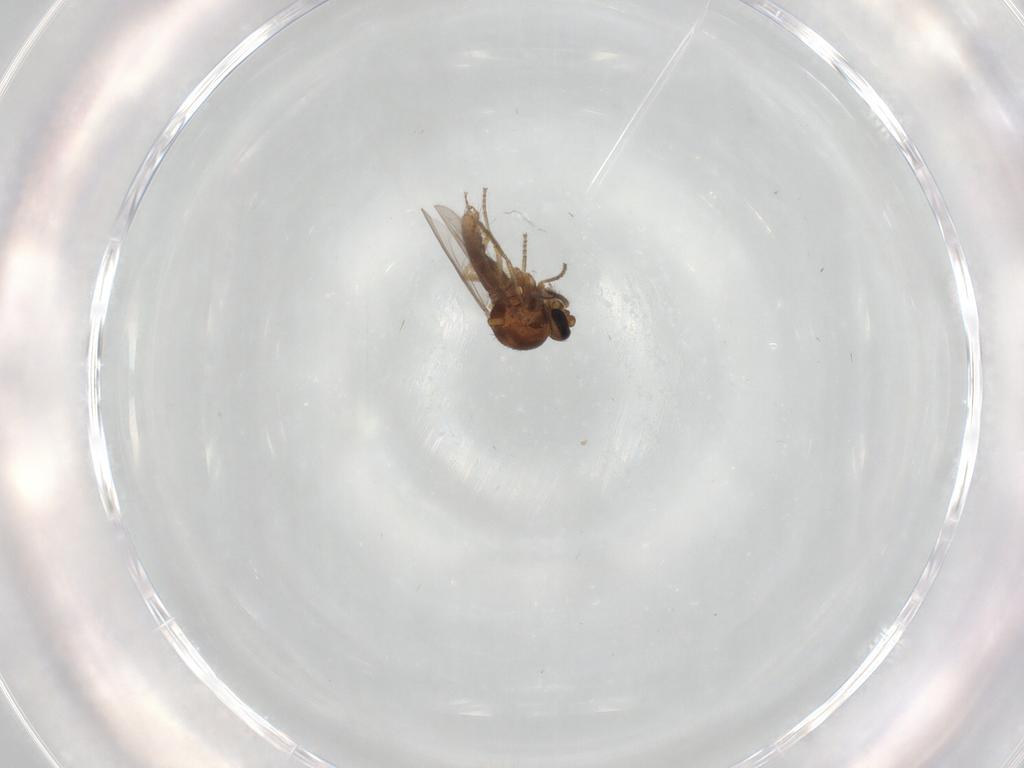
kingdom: Animalia
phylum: Arthropoda
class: Insecta
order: Diptera
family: Ceratopogonidae
